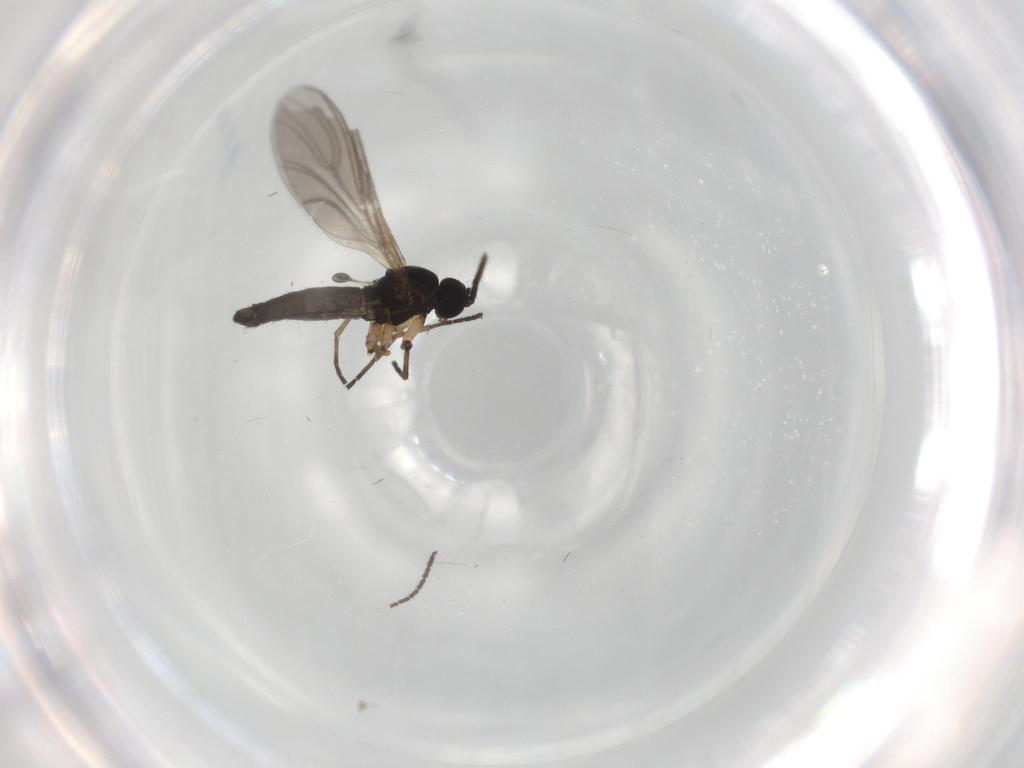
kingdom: Animalia
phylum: Arthropoda
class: Insecta
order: Diptera
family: Sciaridae
